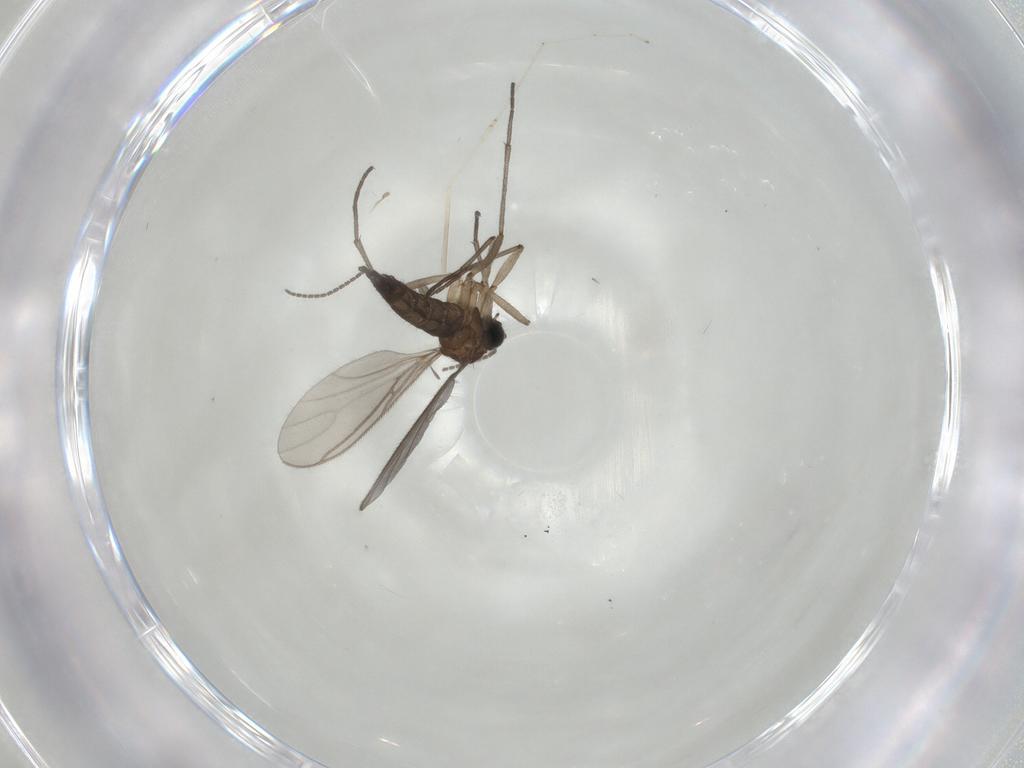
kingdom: Animalia
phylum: Arthropoda
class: Insecta
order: Diptera
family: Sciaridae
